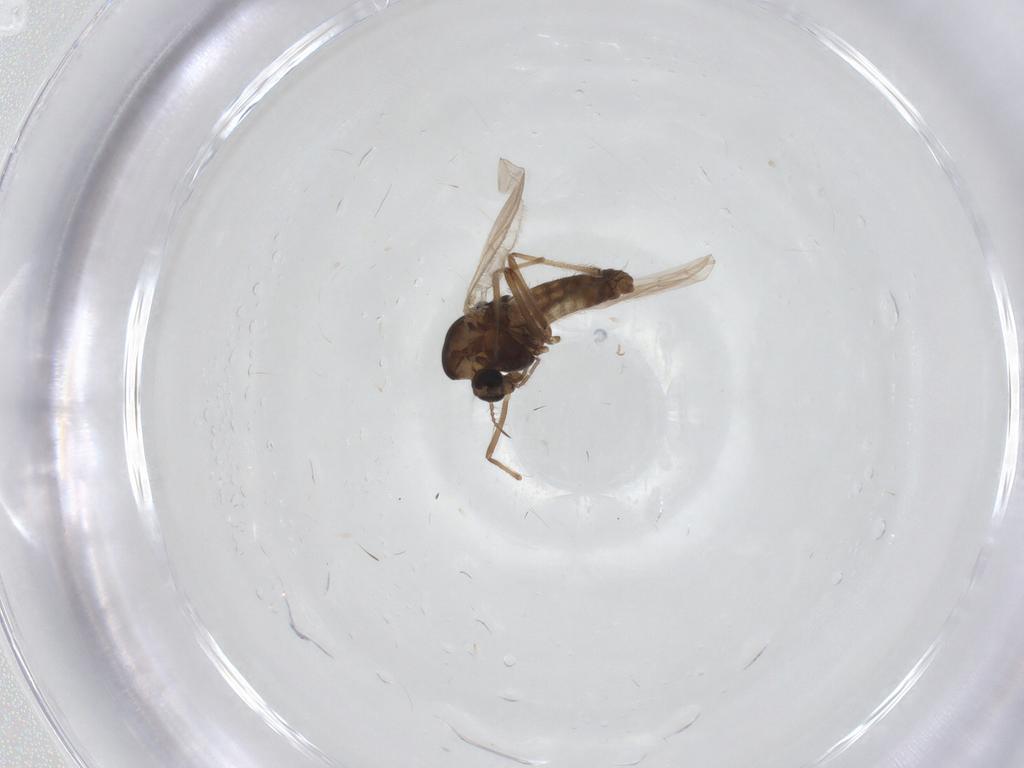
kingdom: Animalia
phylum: Arthropoda
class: Insecta
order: Diptera
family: Chironomidae
